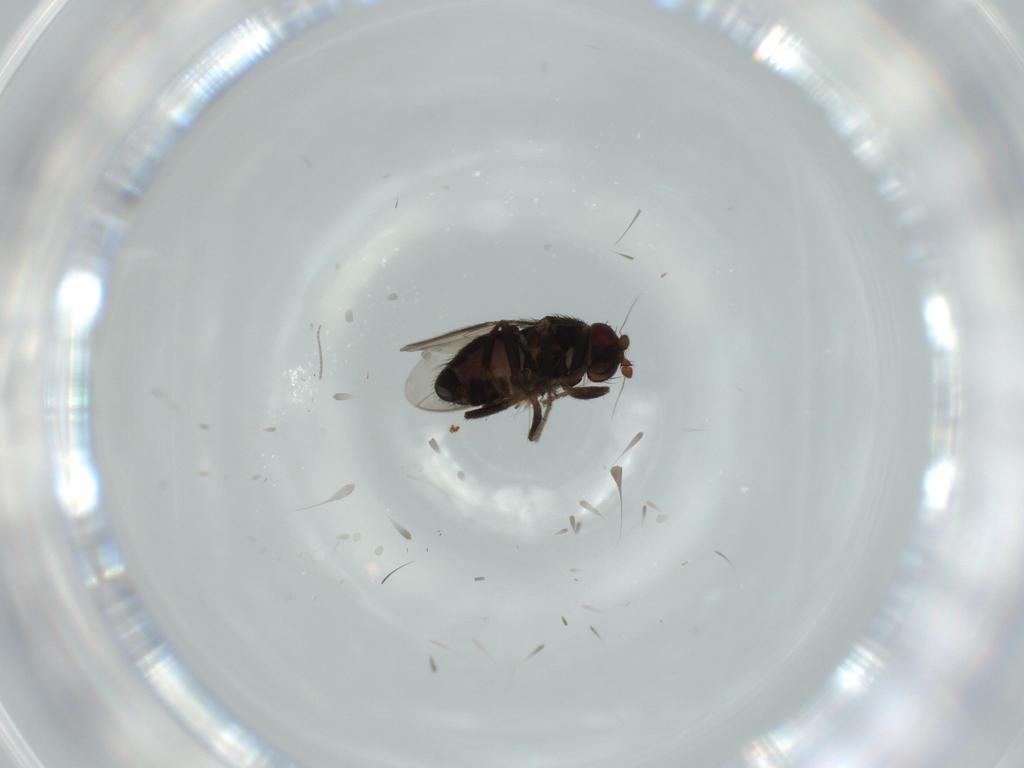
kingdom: Animalia
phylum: Arthropoda
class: Insecta
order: Diptera
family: Sphaeroceridae
